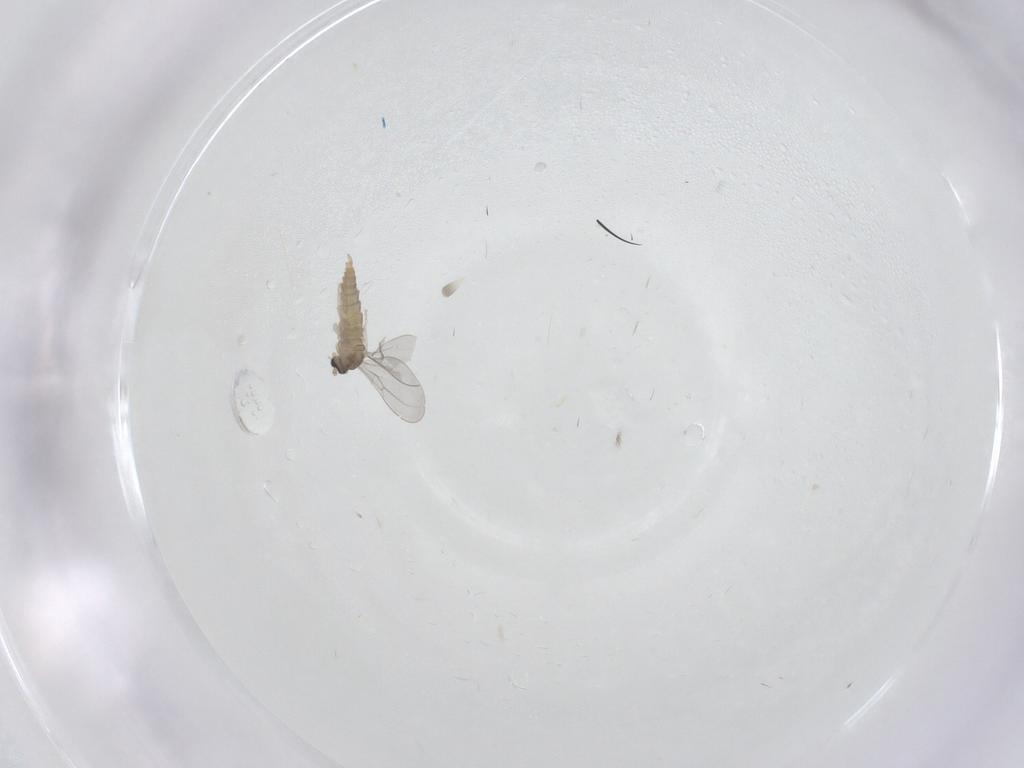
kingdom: Animalia
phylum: Arthropoda
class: Insecta
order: Diptera
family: Cecidomyiidae
